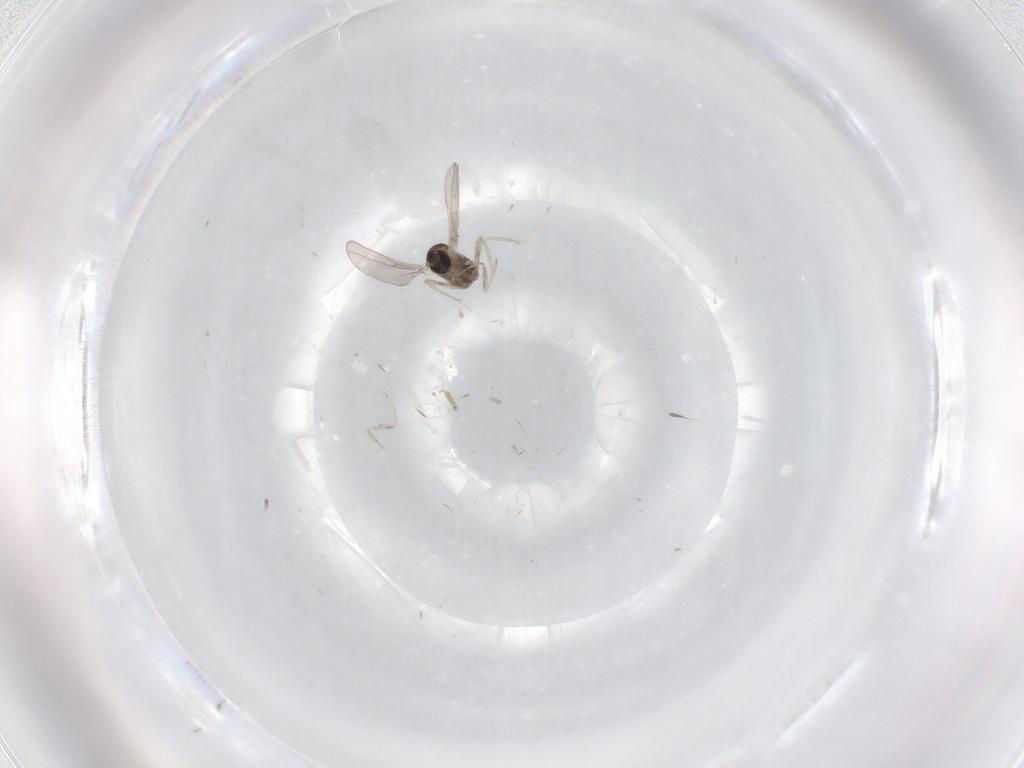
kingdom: Animalia
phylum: Arthropoda
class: Insecta
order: Diptera
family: Cecidomyiidae
